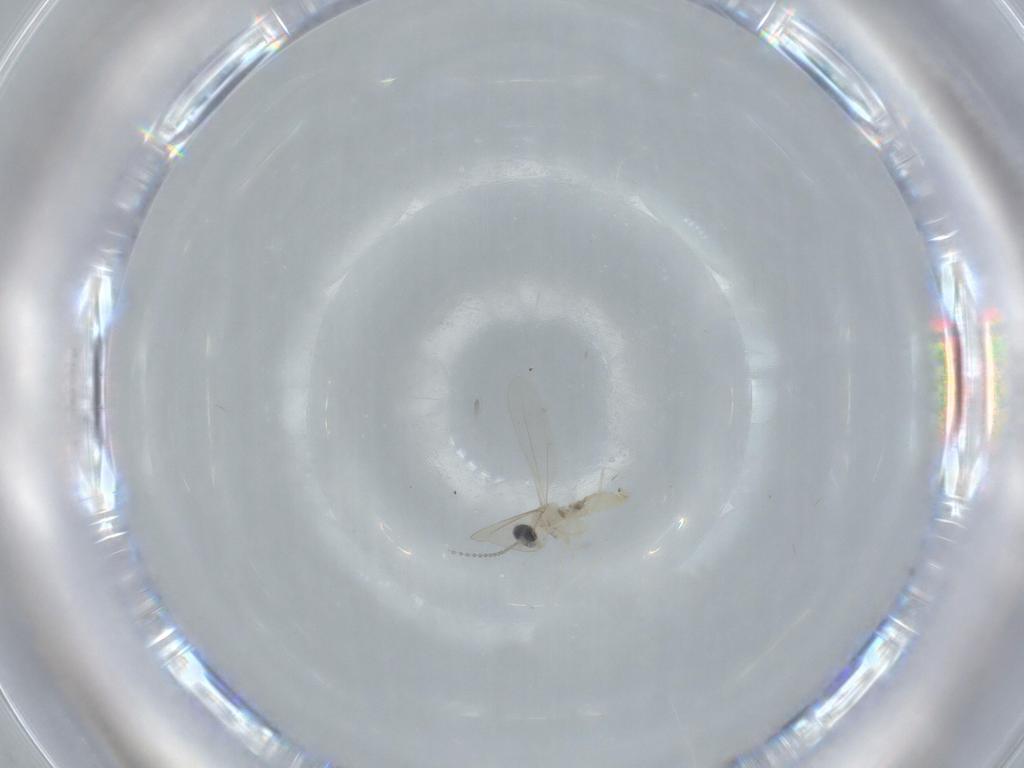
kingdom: Animalia
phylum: Arthropoda
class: Insecta
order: Diptera
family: Cecidomyiidae
